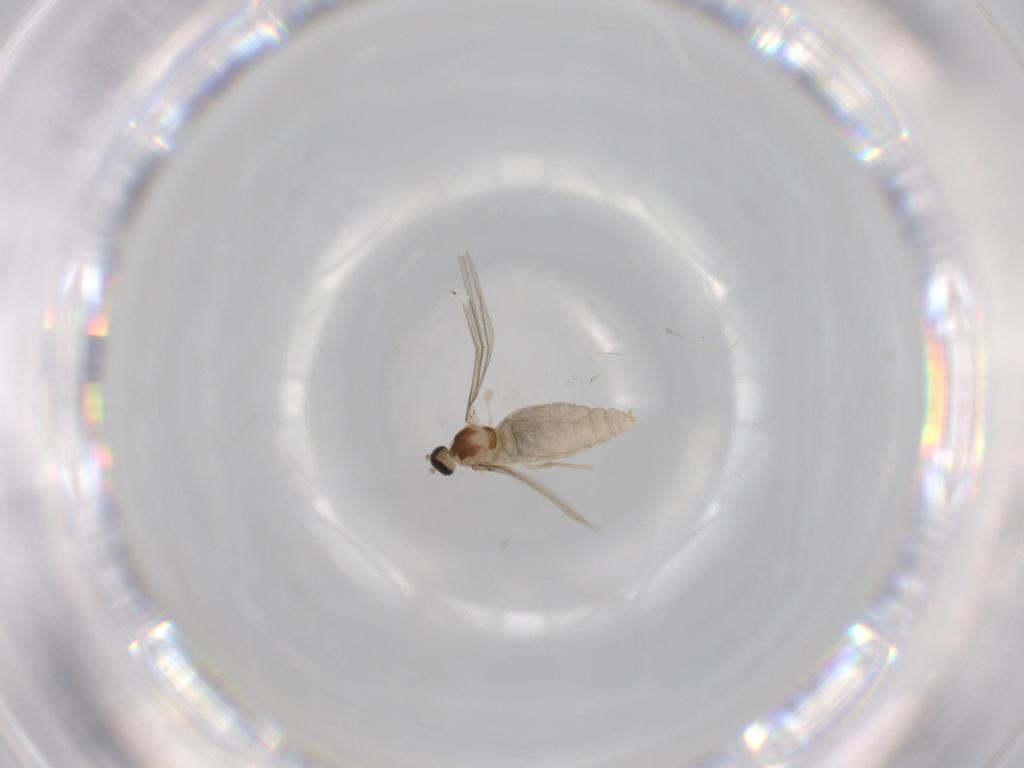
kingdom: Animalia
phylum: Arthropoda
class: Insecta
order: Diptera
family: Cecidomyiidae
